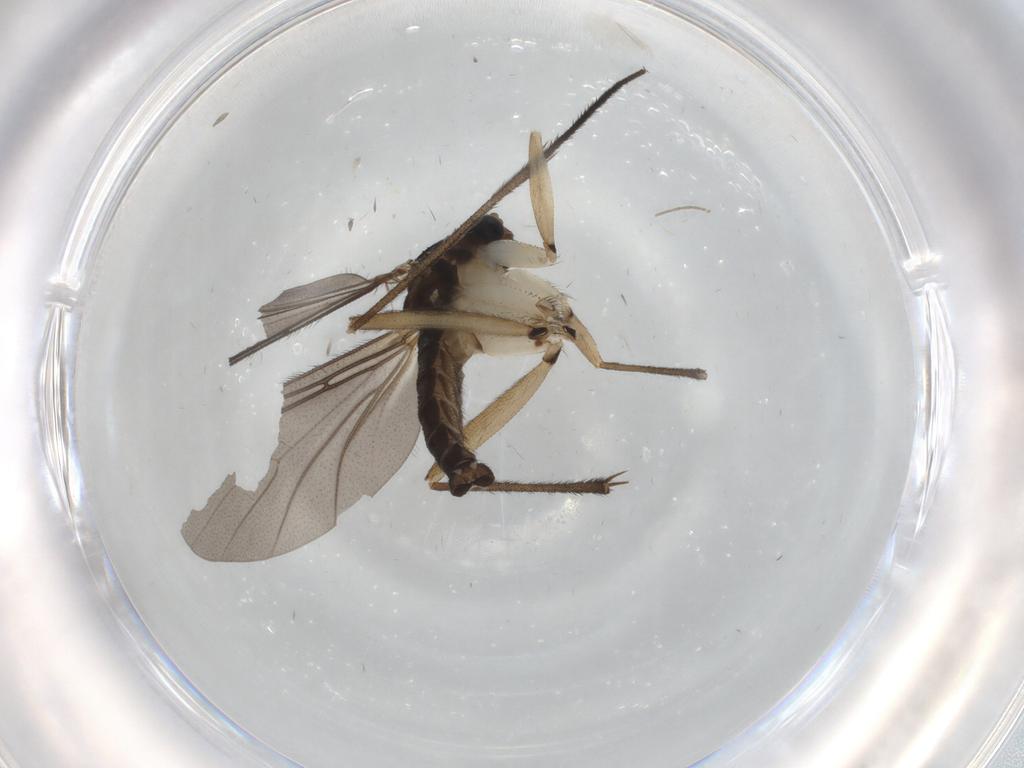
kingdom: Animalia
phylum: Arthropoda
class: Insecta
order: Diptera
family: Sciaridae
